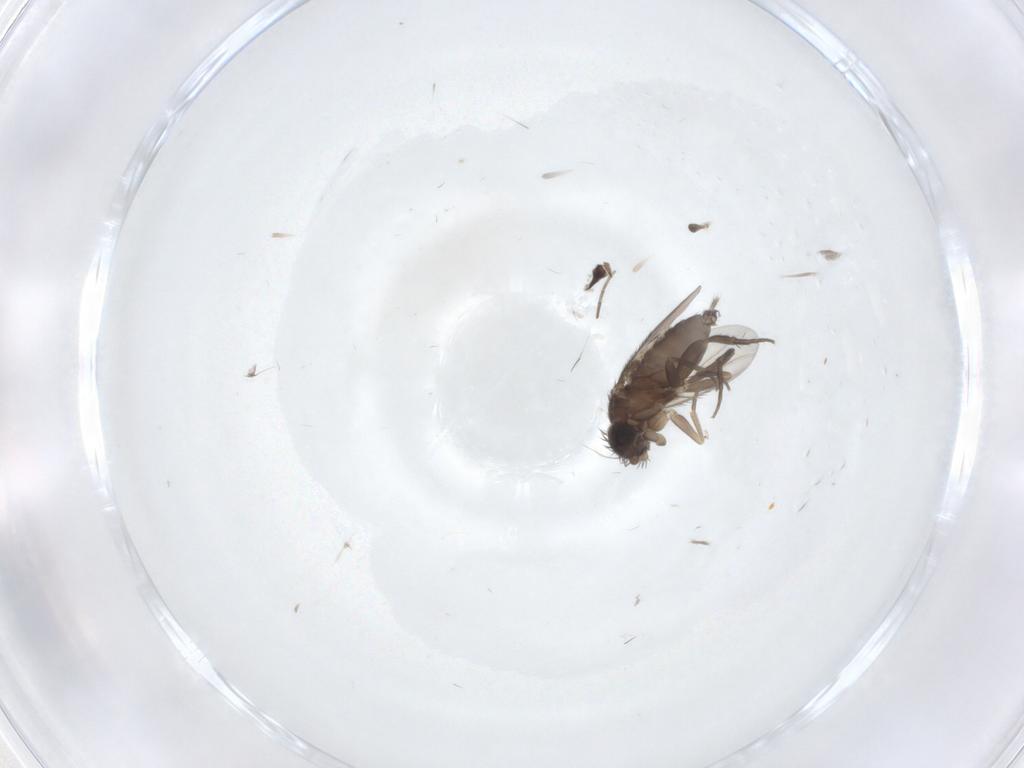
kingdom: Animalia
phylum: Arthropoda
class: Insecta
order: Diptera
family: Phoridae
